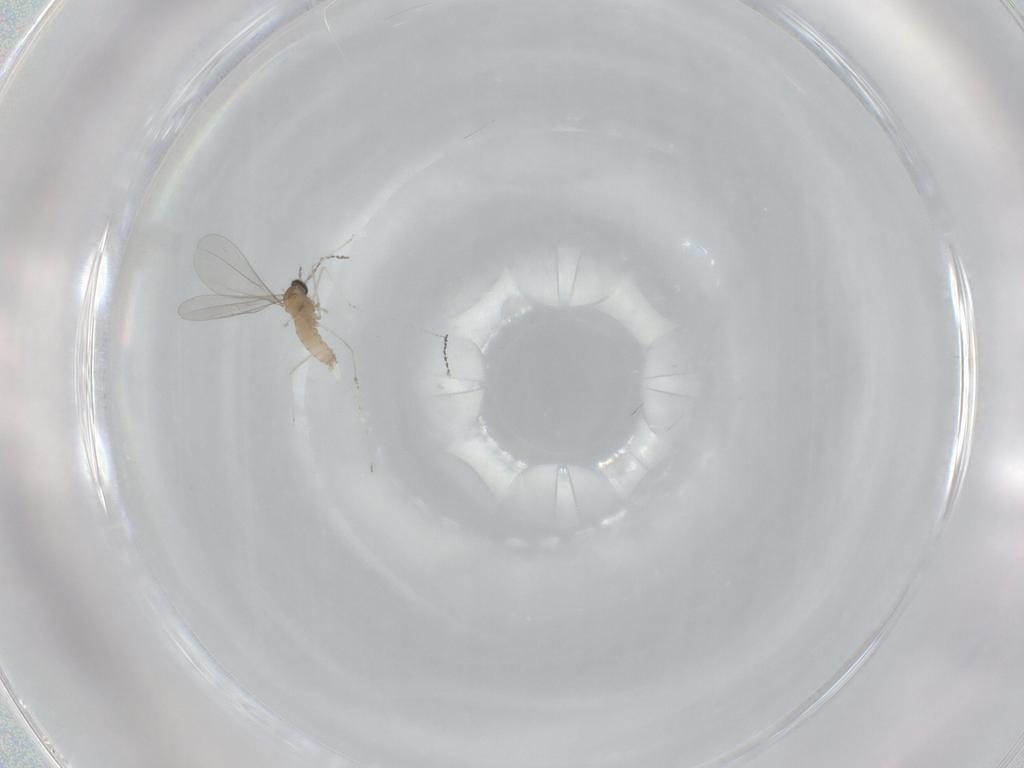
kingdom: Animalia
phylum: Arthropoda
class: Insecta
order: Diptera
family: Cecidomyiidae
